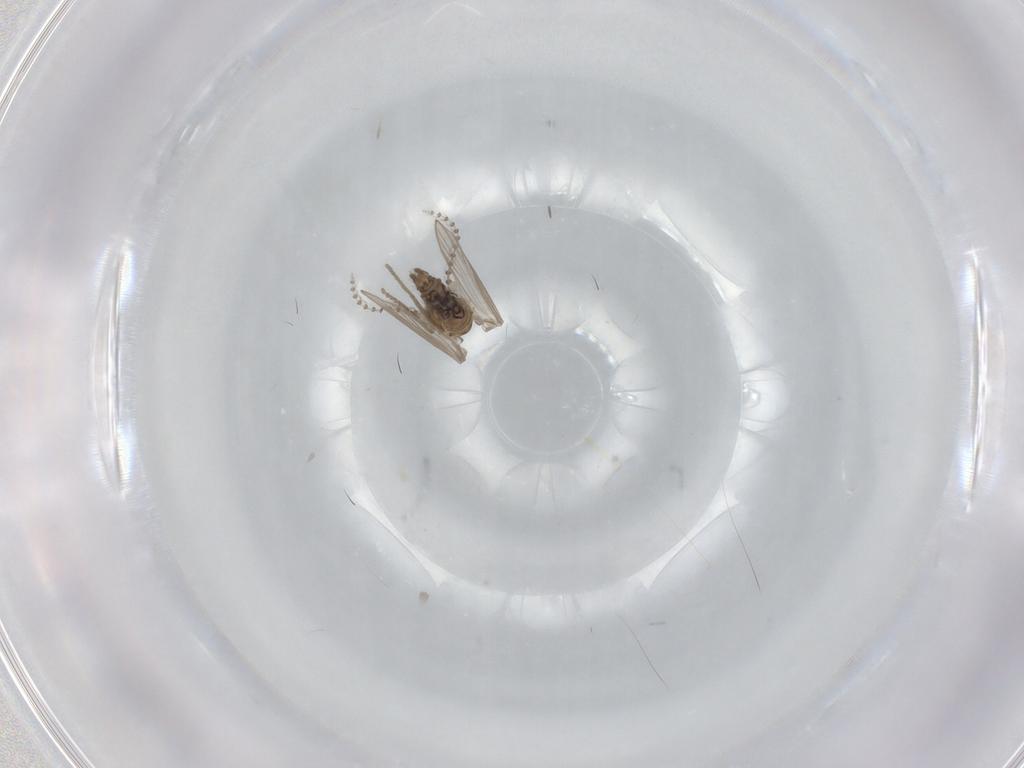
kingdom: Animalia
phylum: Arthropoda
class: Insecta
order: Diptera
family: Psychodidae
